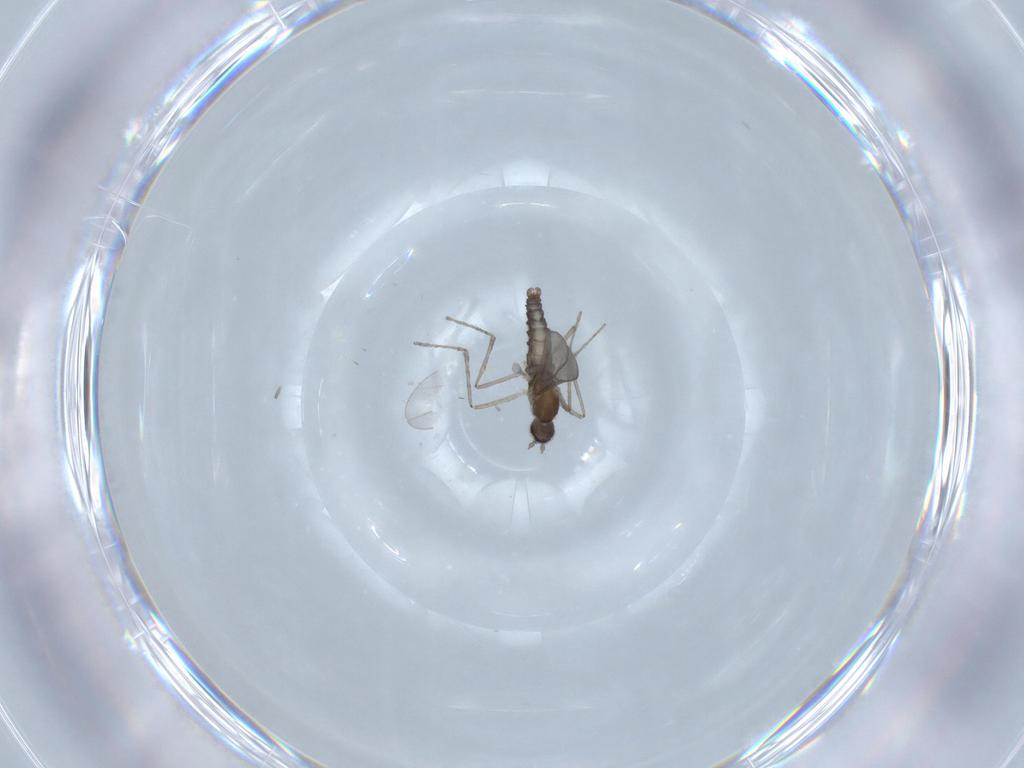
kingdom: Animalia
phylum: Arthropoda
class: Insecta
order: Diptera
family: Cecidomyiidae
